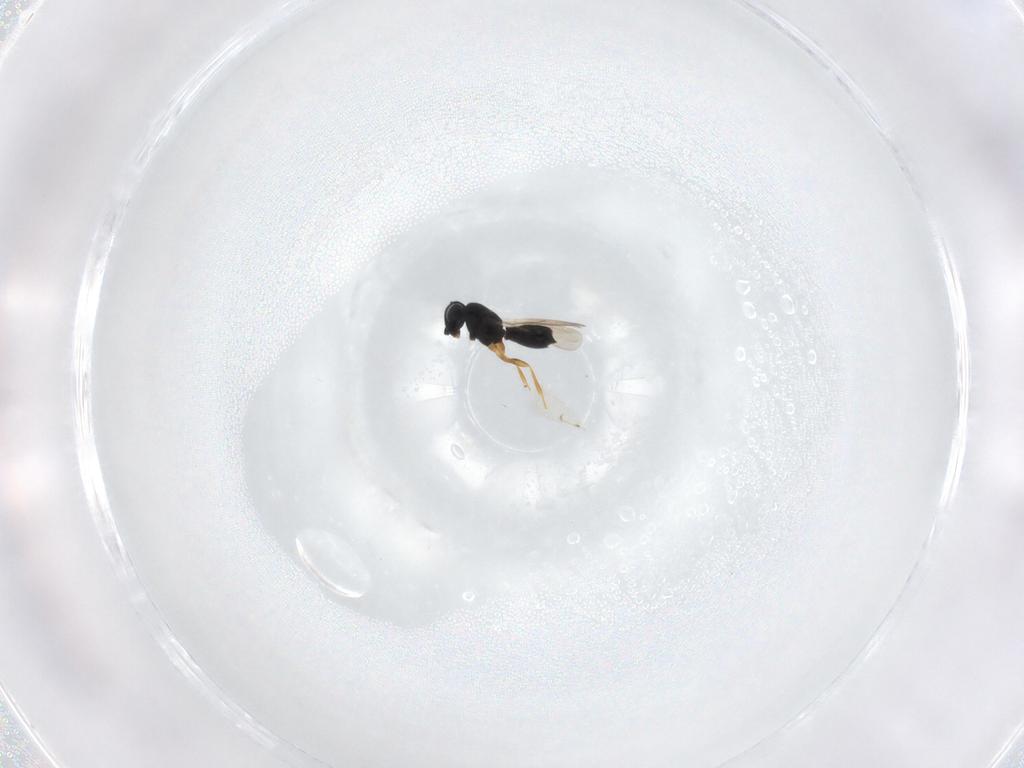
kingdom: Animalia
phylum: Arthropoda
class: Insecta
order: Hymenoptera
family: Scelionidae
